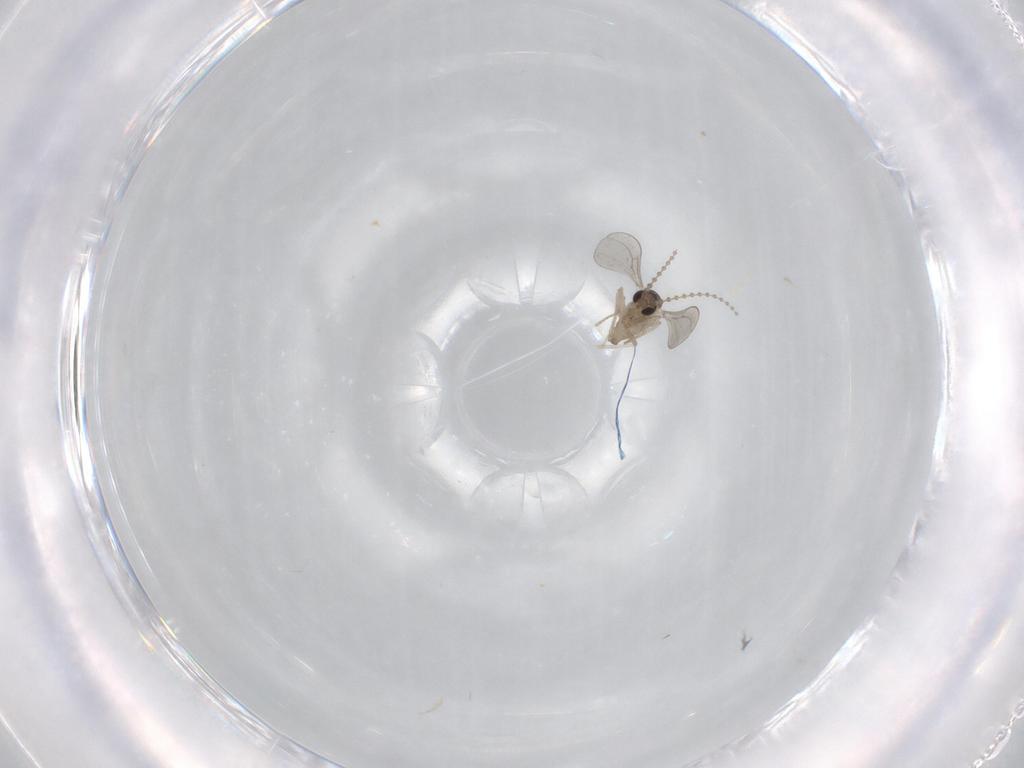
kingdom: Animalia
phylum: Arthropoda
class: Insecta
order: Diptera
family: Cecidomyiidae
